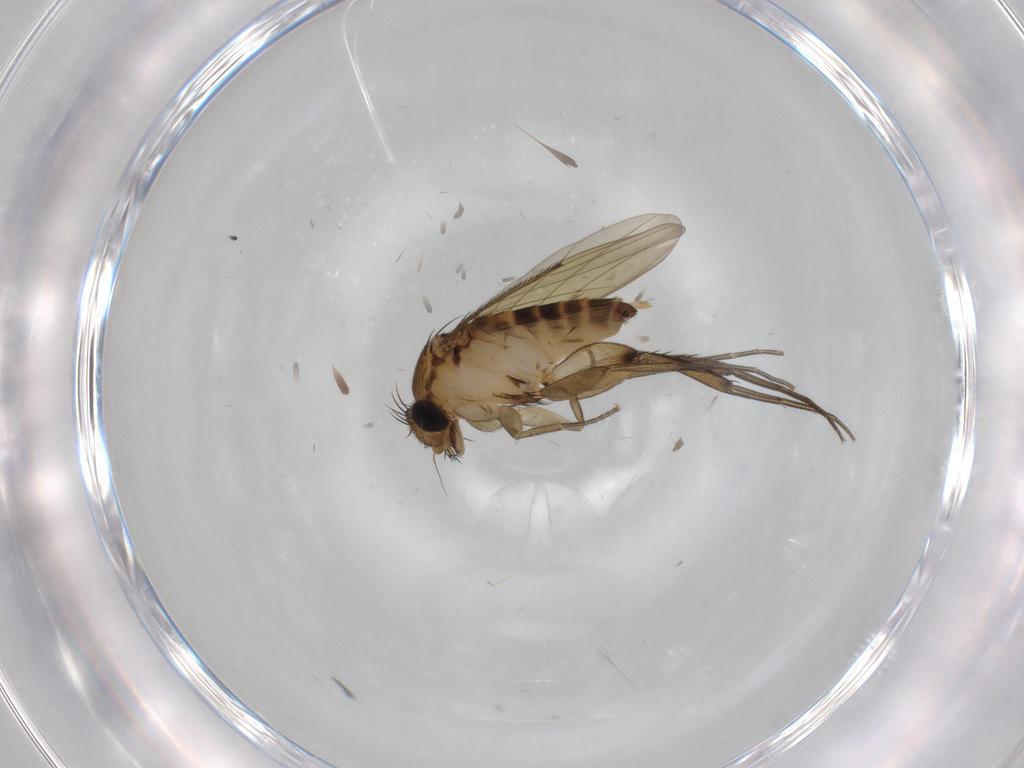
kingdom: Animalia
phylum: Arthropoda
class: Insecta
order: Diptera
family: Phoridae
